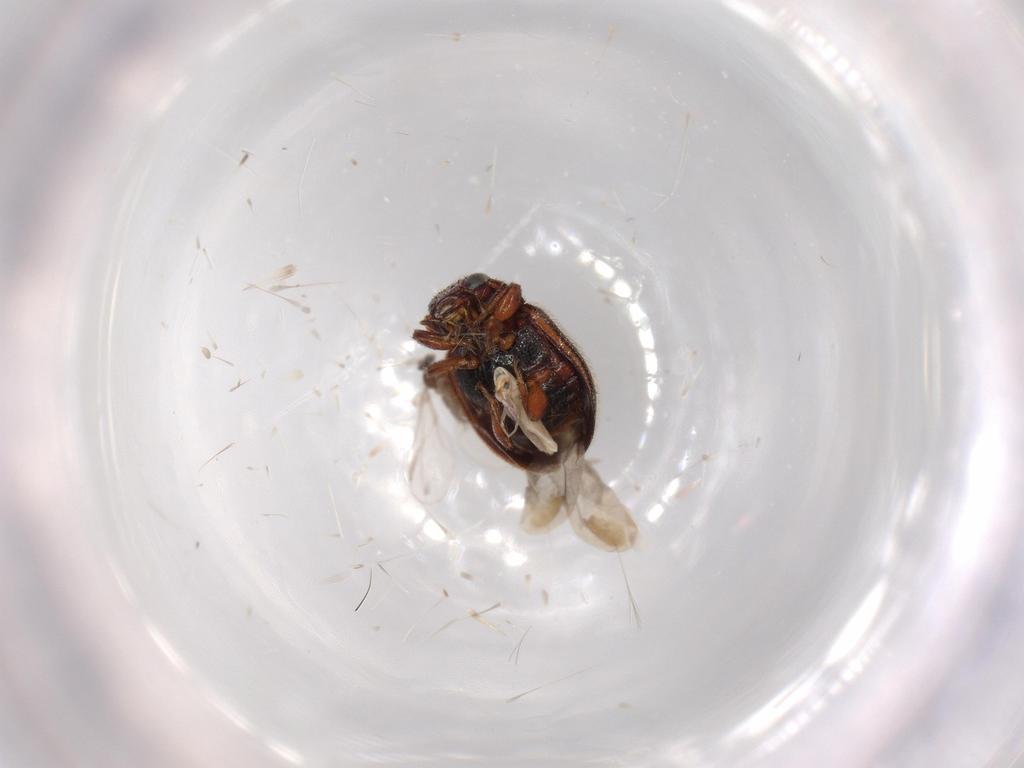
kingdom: Animalia
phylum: Arthropoda
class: Insecta
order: Coleoptera
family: Coccinellidae
